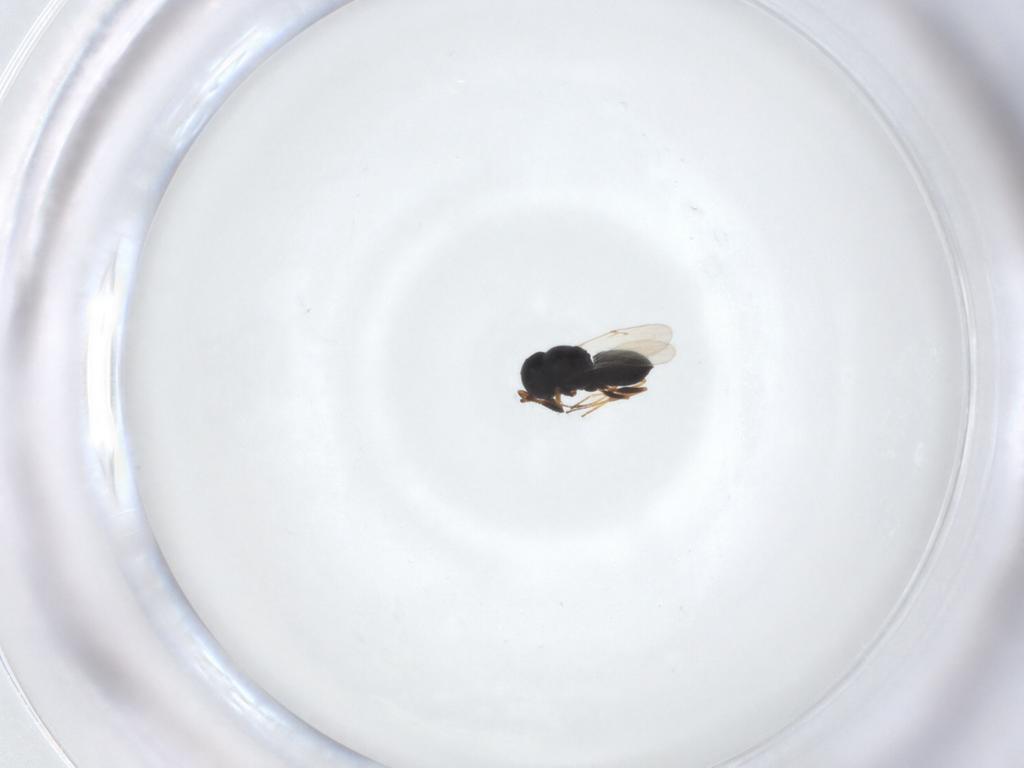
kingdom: Animalia
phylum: Arthropoda
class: Insecta
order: Hymenoptera
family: Scelionidae
